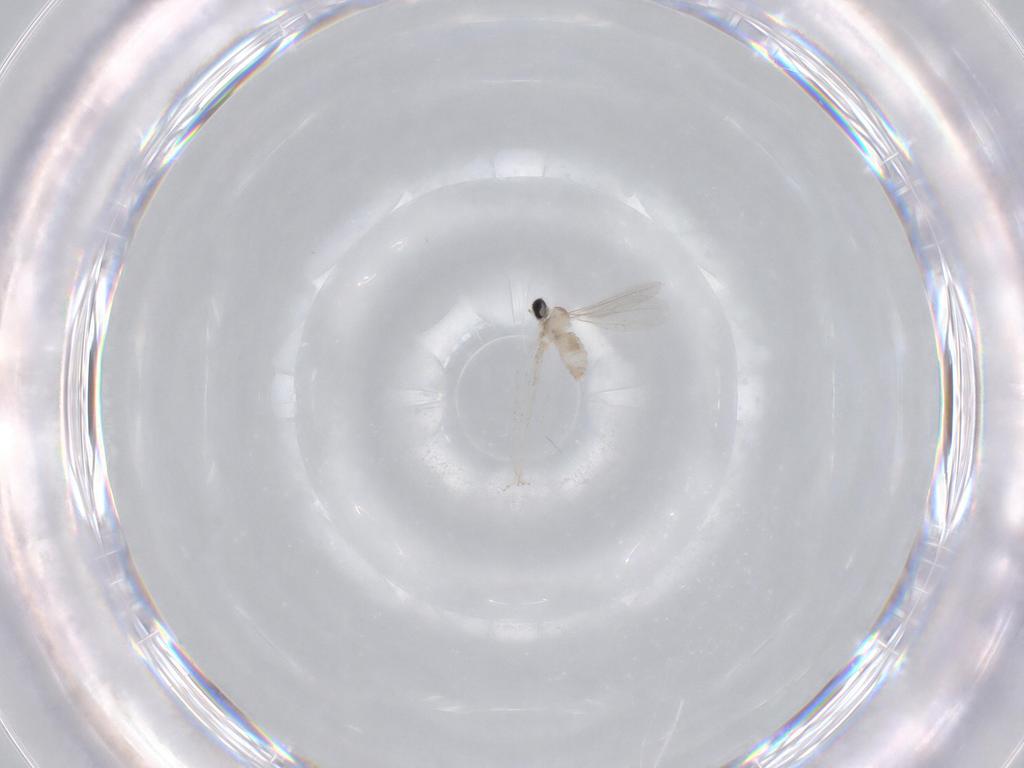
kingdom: Animalia
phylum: Arthropoda
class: Insecta
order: Diptera
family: Cecidomyiidae
